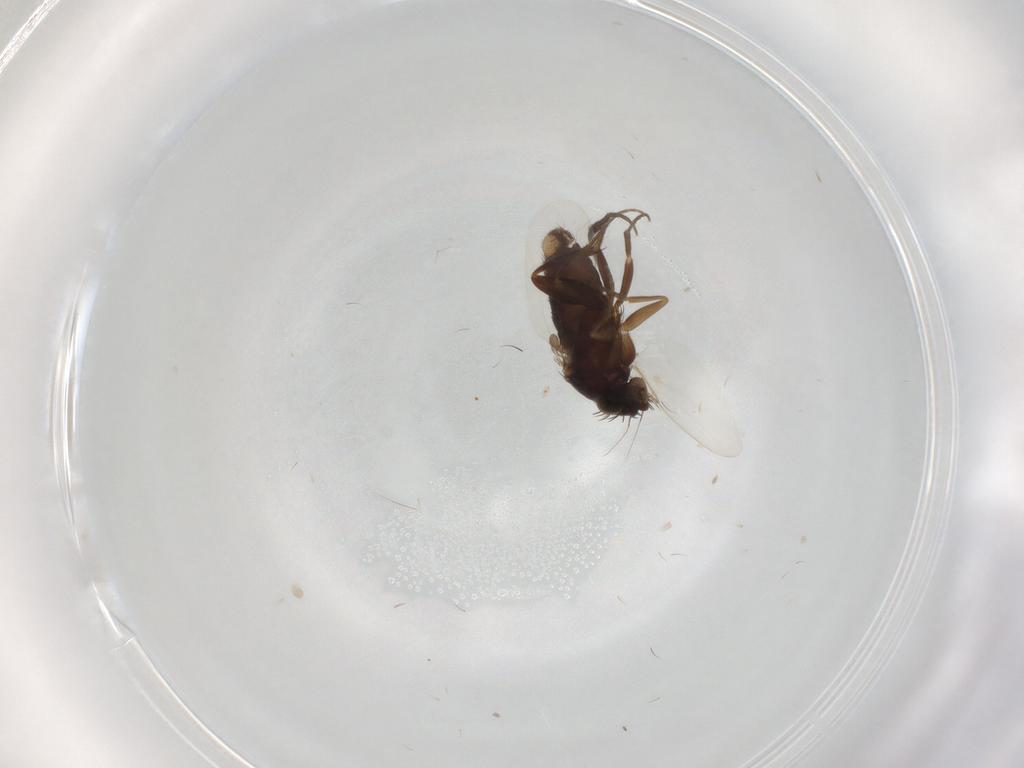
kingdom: Animalia
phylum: Arthropoda
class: Insecta
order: Diptera
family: Phoridae
